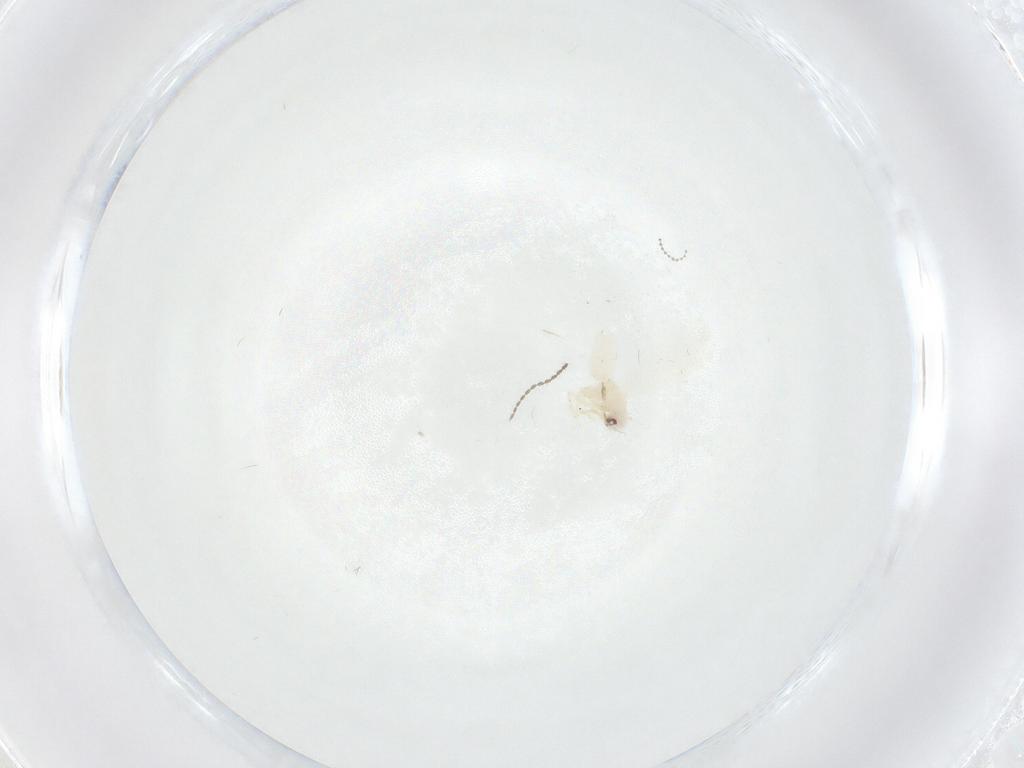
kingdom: Animalia
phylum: Arthropoda
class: Insecta
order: Hemiptera
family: Aleyrodidae
